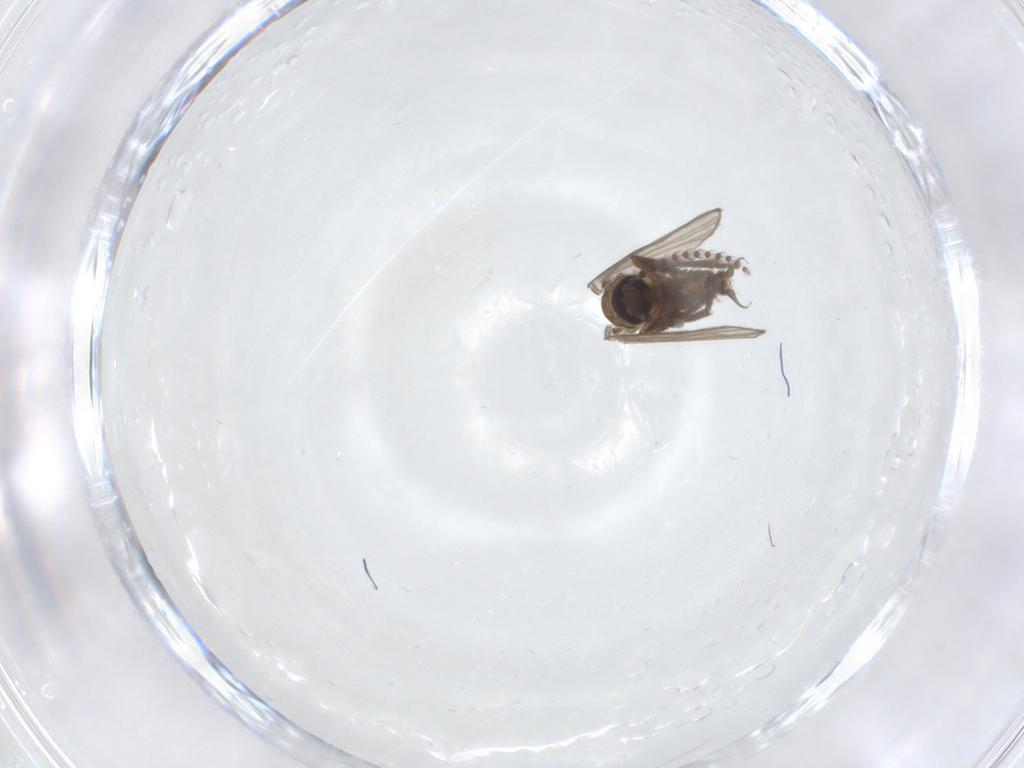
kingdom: Animalia
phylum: Arthropoda
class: Insecta
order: Diptera
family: Psychodidae
